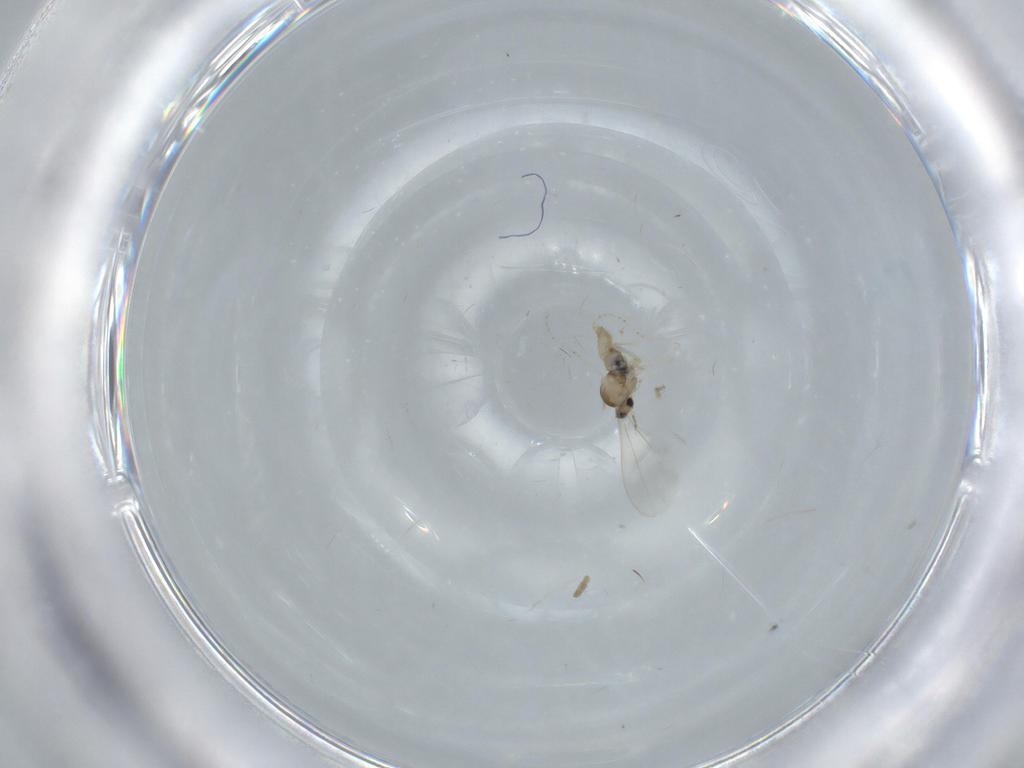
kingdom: Animalia
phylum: Arthropoda
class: Insecta
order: Diptera
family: Cecidomyiidae
